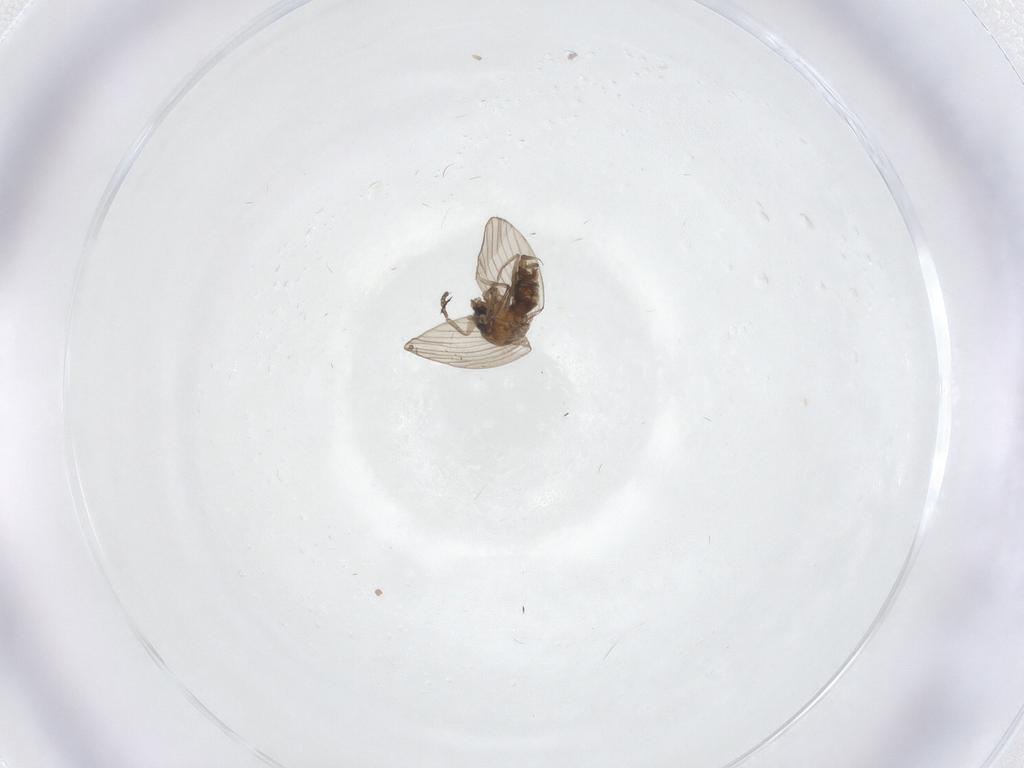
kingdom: Animalia
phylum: Arthropoda
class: Insecta
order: Diptera
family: Psychodidae
